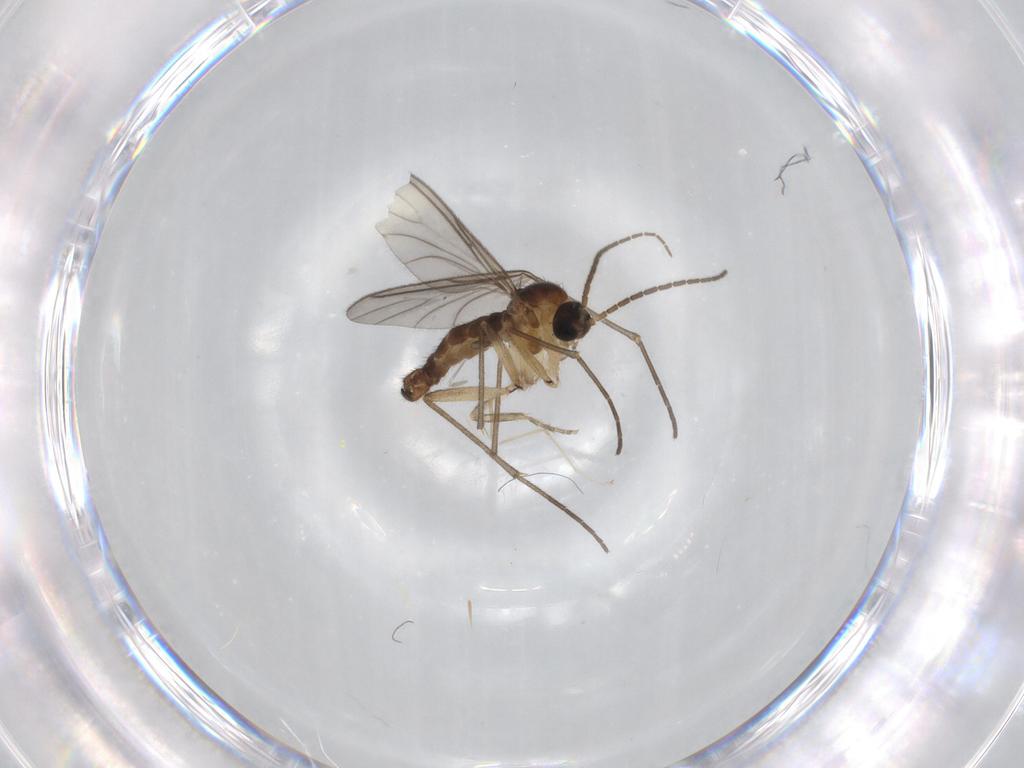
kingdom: Animalia
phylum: Arthropoda
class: Insecta
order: Diptera
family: Sciaridae
